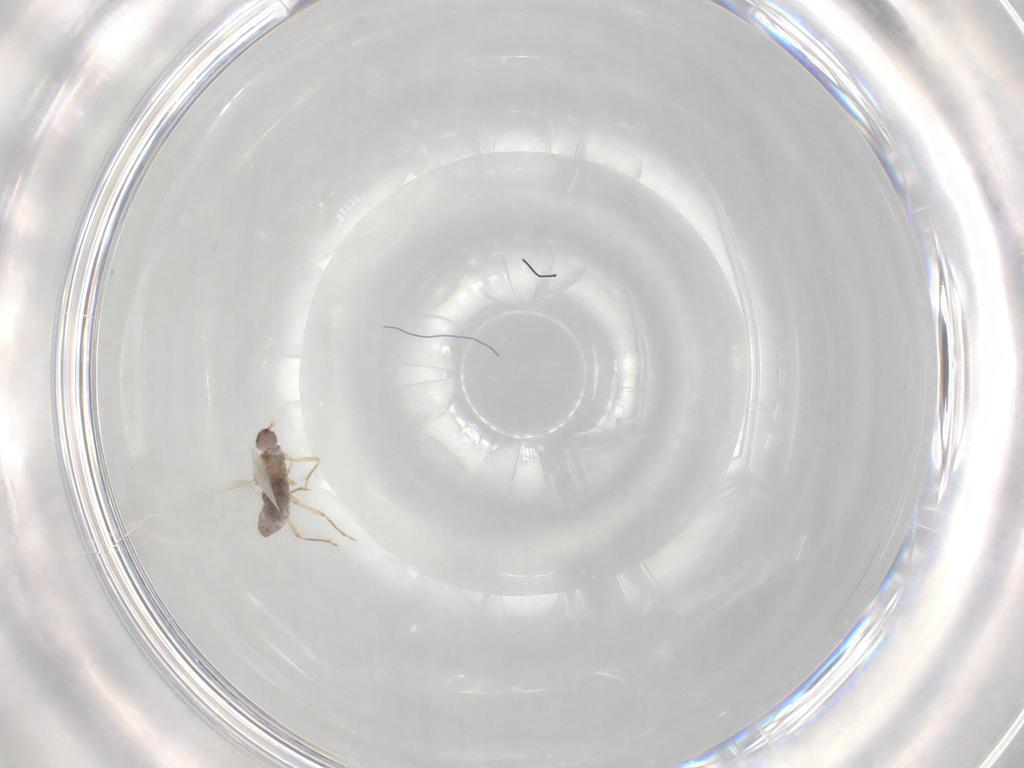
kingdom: Animalia
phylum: Arthropoda
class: Insecta
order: Hemiptera
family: Pseudococcidae
